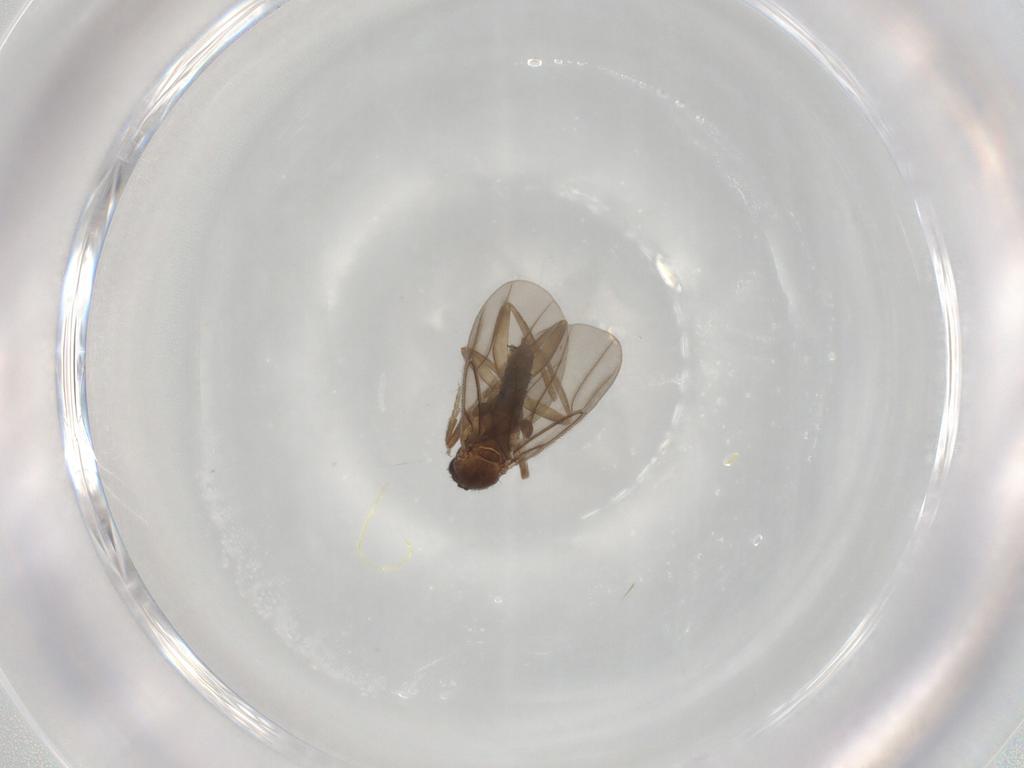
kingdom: Animalia
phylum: Arthropoda
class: Insecta
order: Diptera
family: Phoridae
